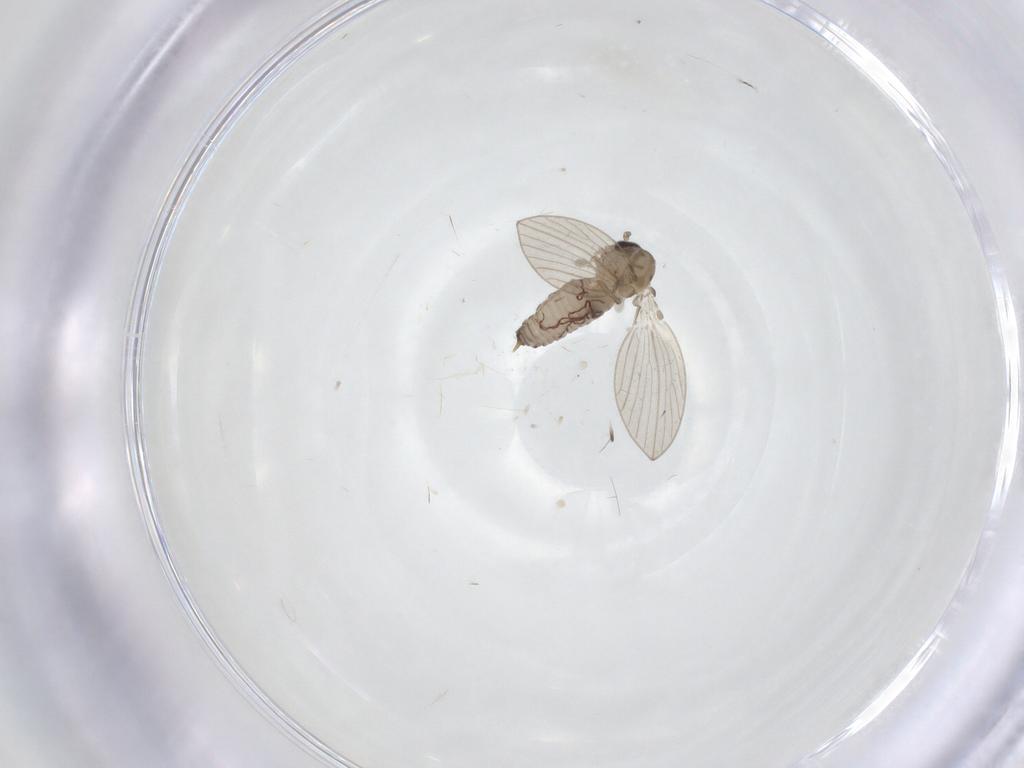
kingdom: Animalia
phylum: Arthropoda
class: Insecta
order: Diptera
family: Psychodidae
